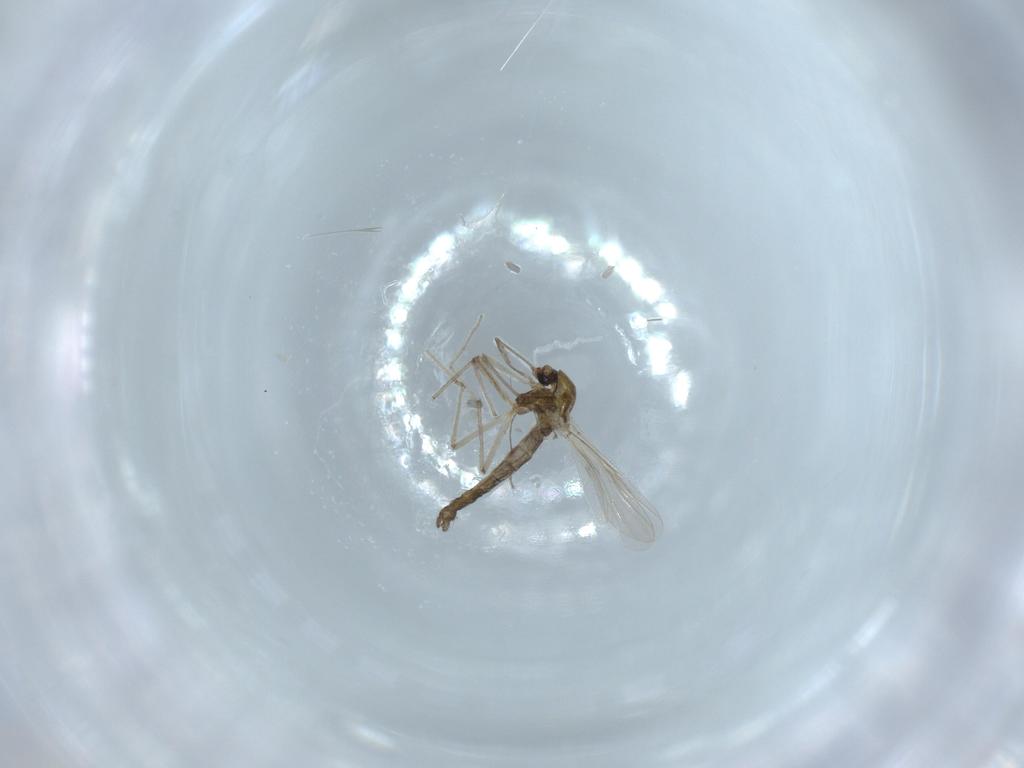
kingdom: Animalia
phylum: Arthropoda
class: Insecta
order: Diptera
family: Chironomidae
